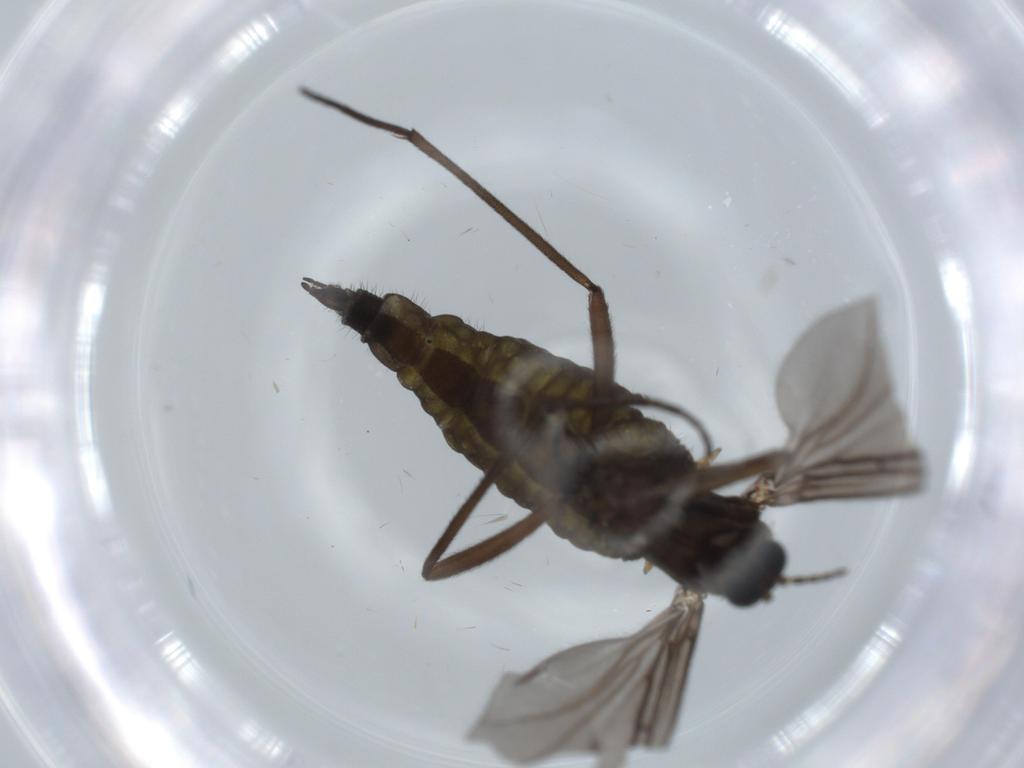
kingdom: Animalia
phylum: Arthropoda
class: Insecta
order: Diptera
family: Sciaridae
